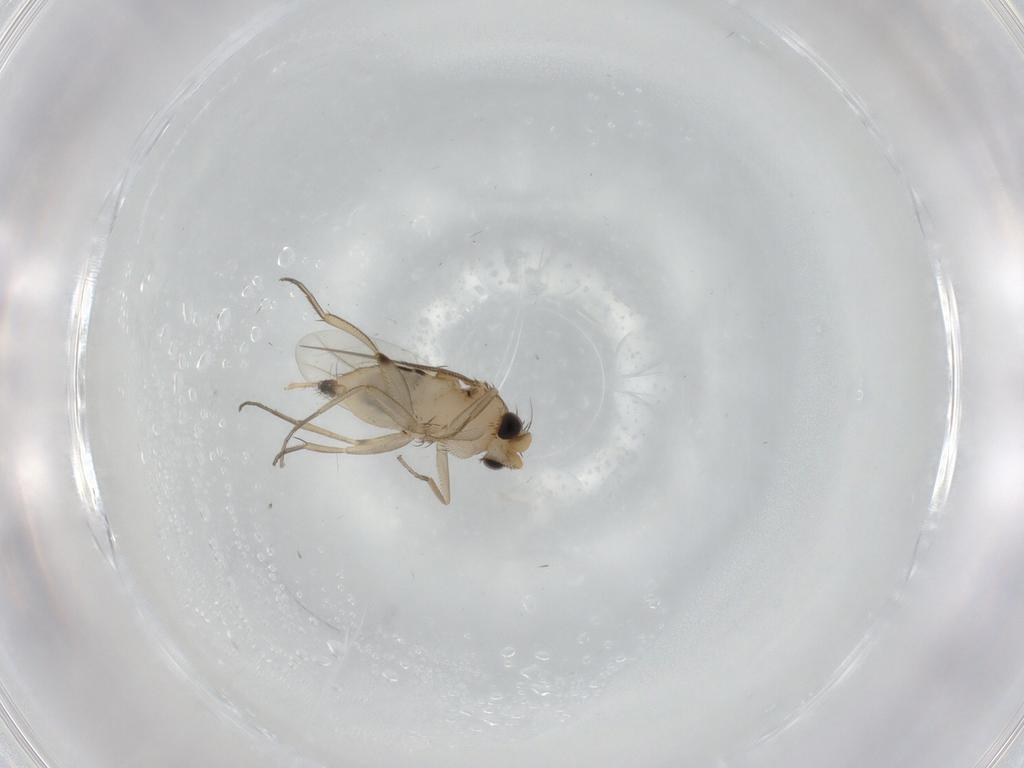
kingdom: Animalia
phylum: Arthropoda
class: Insecta
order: Diptera
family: Phoridae
